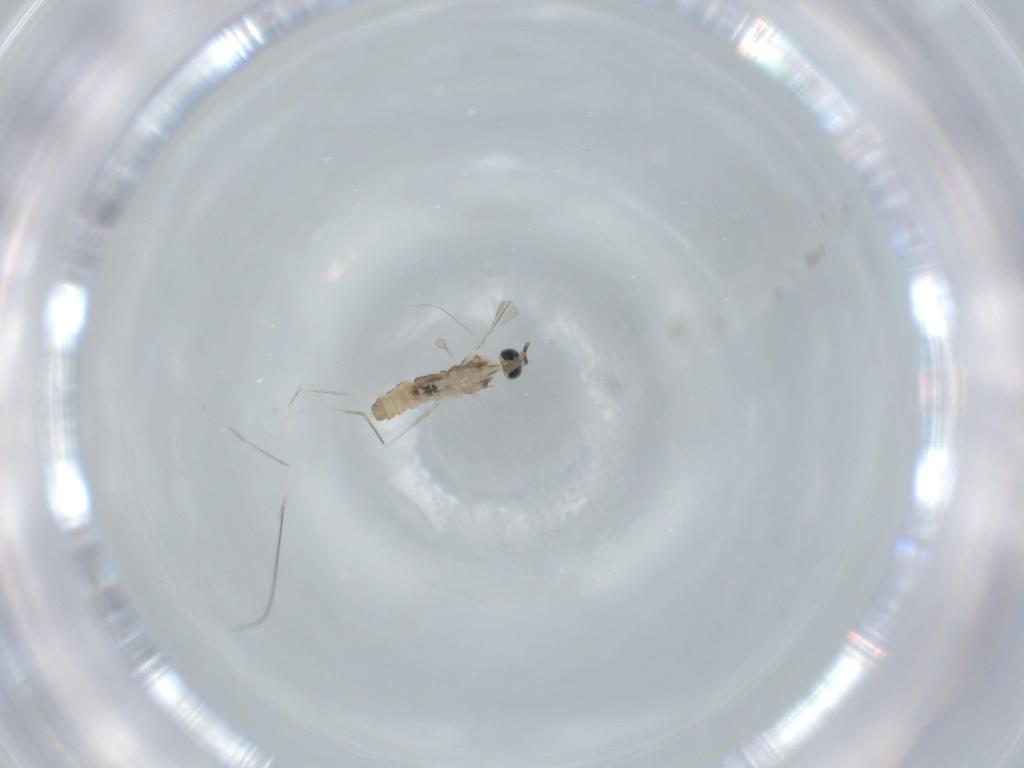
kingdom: Animalia
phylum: Arthropoda
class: Insecta
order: Diptera
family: Cecidomyiidae
